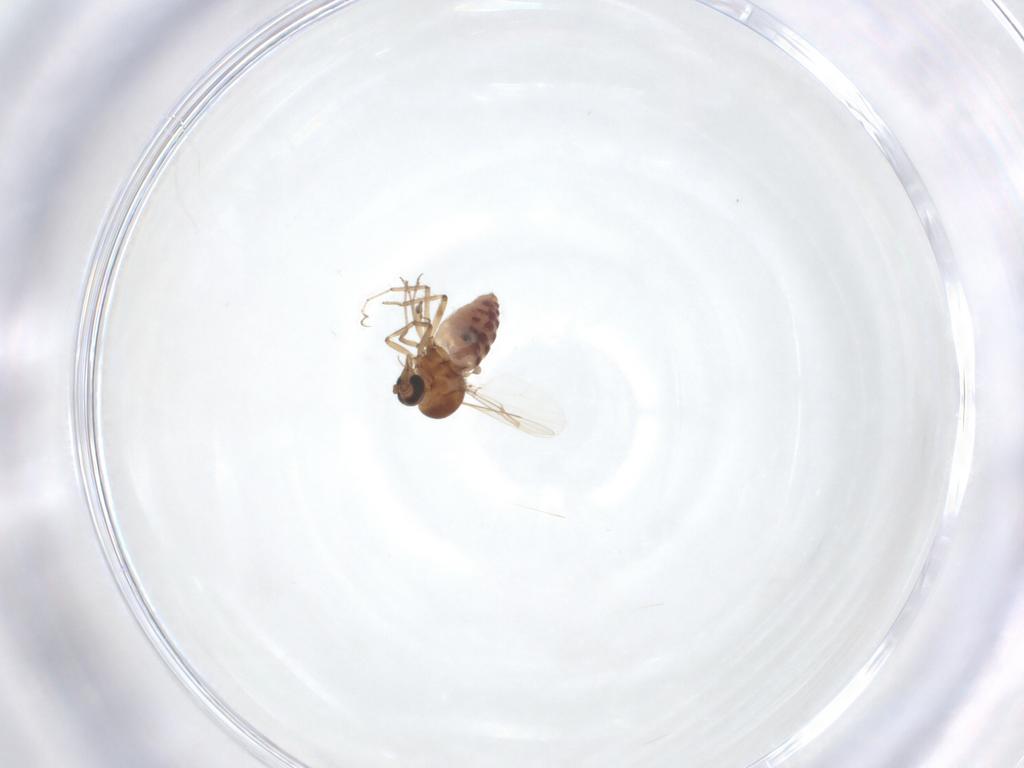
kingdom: Animalia
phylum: Arthropoda
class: Insecta
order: Diptera
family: Ceratopogonidae
